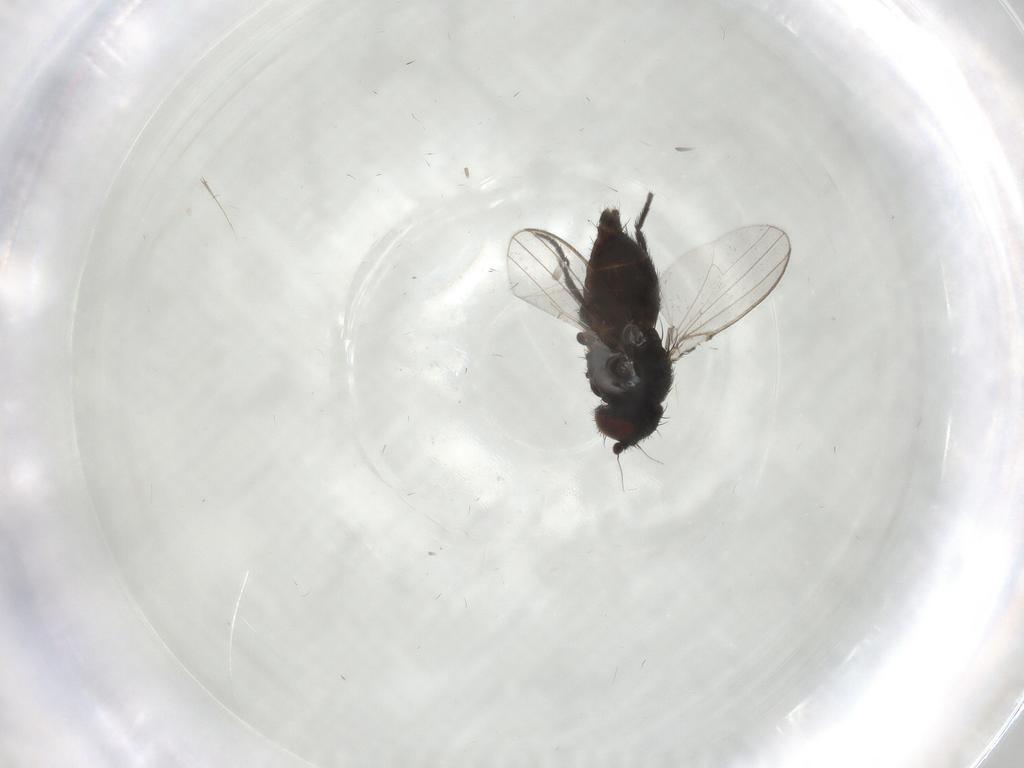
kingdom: Animalia
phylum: Arthropoda
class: Insecta
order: Diptera
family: Milichiidae
